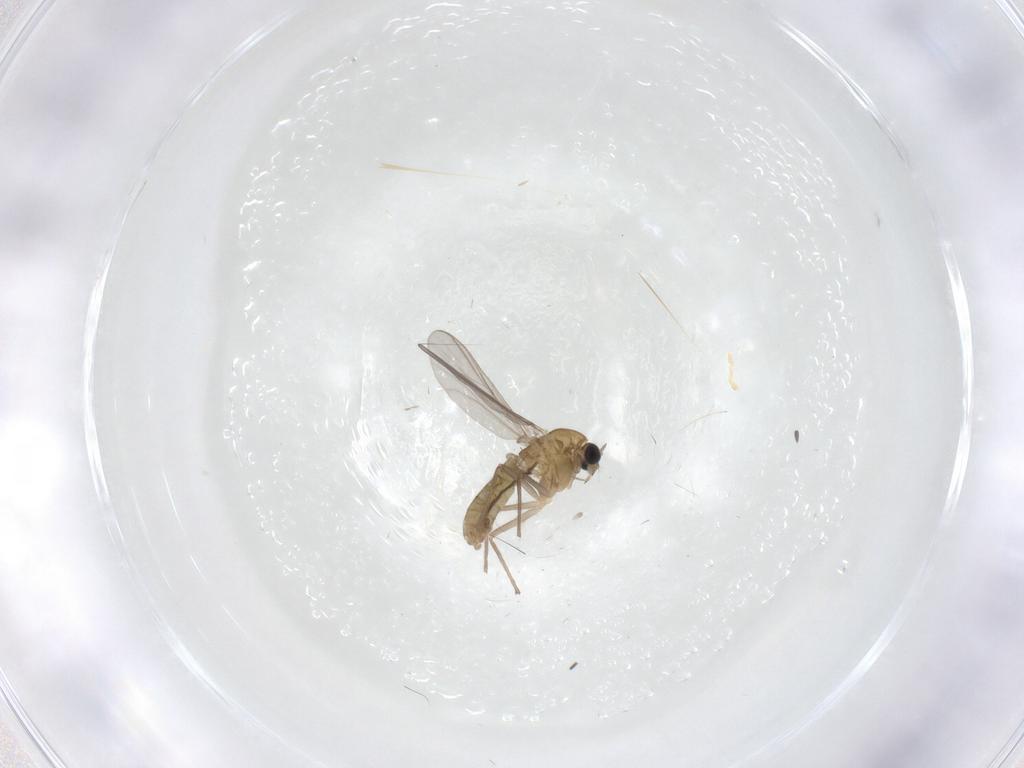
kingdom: Animalia
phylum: Arthropoda
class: Insecta
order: Diptera
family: Chironomidae
